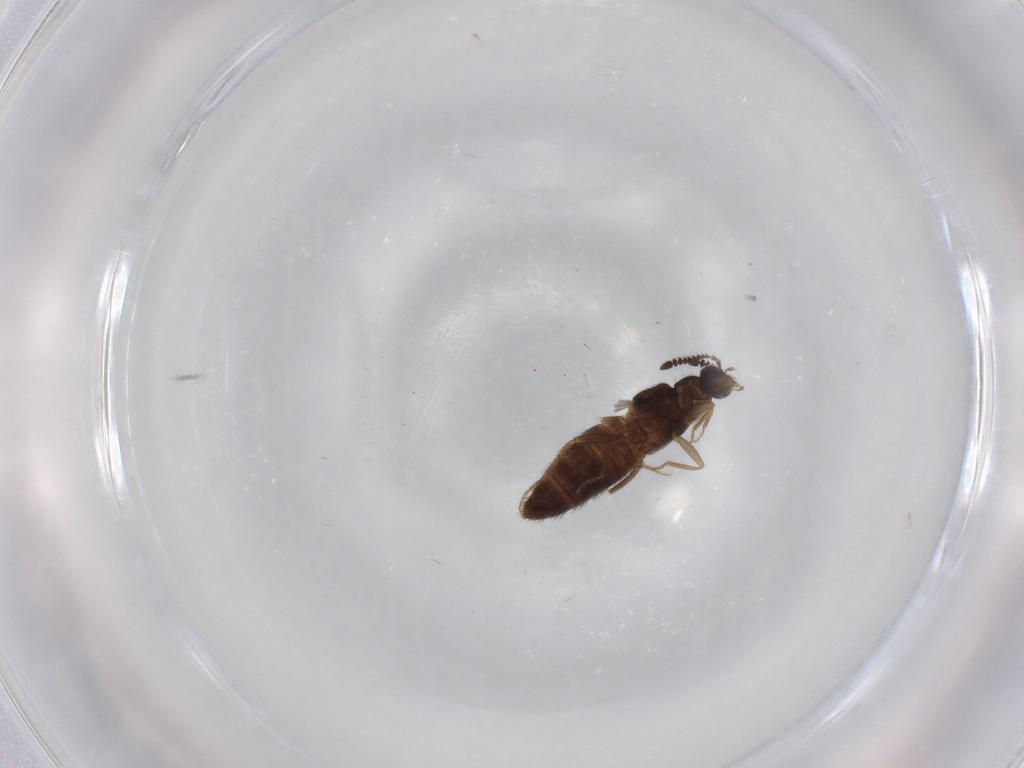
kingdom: Animalia
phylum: Arthropoda
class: Insecta
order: Coleoptera
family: Staphylinidae
